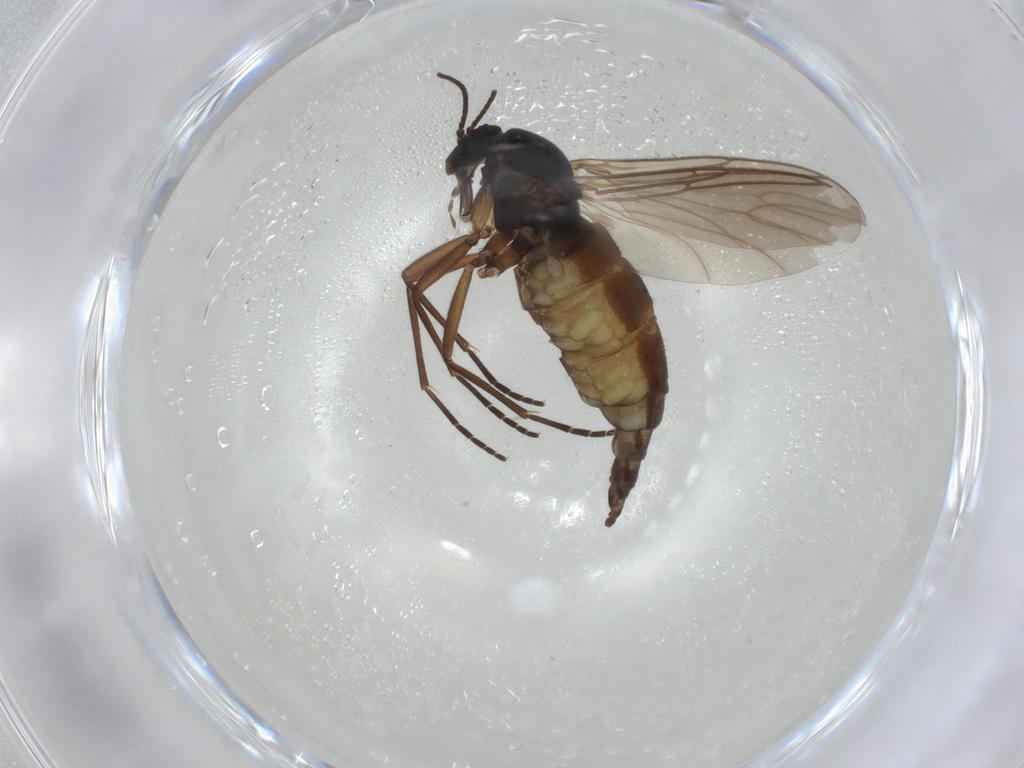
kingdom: Animalia
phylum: Arthropoda
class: Insecta
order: Diptera
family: Sciaridae
